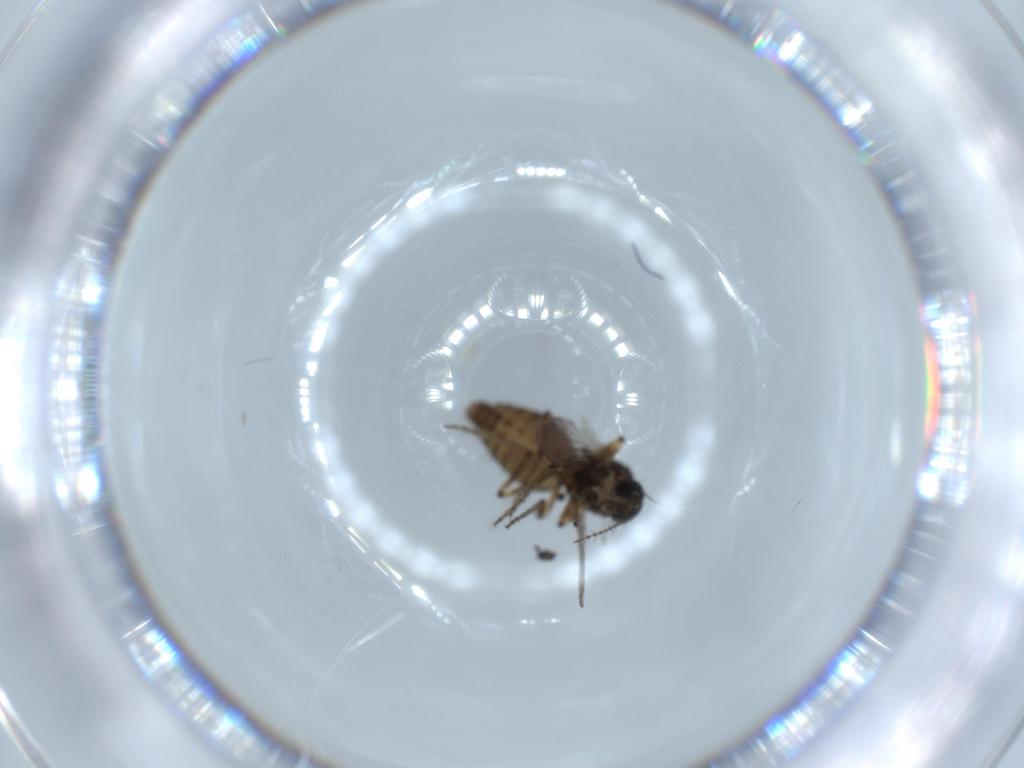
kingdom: Animalia
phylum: Arthropoda
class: Insecta
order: Diptera
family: Ceratopogonidae
